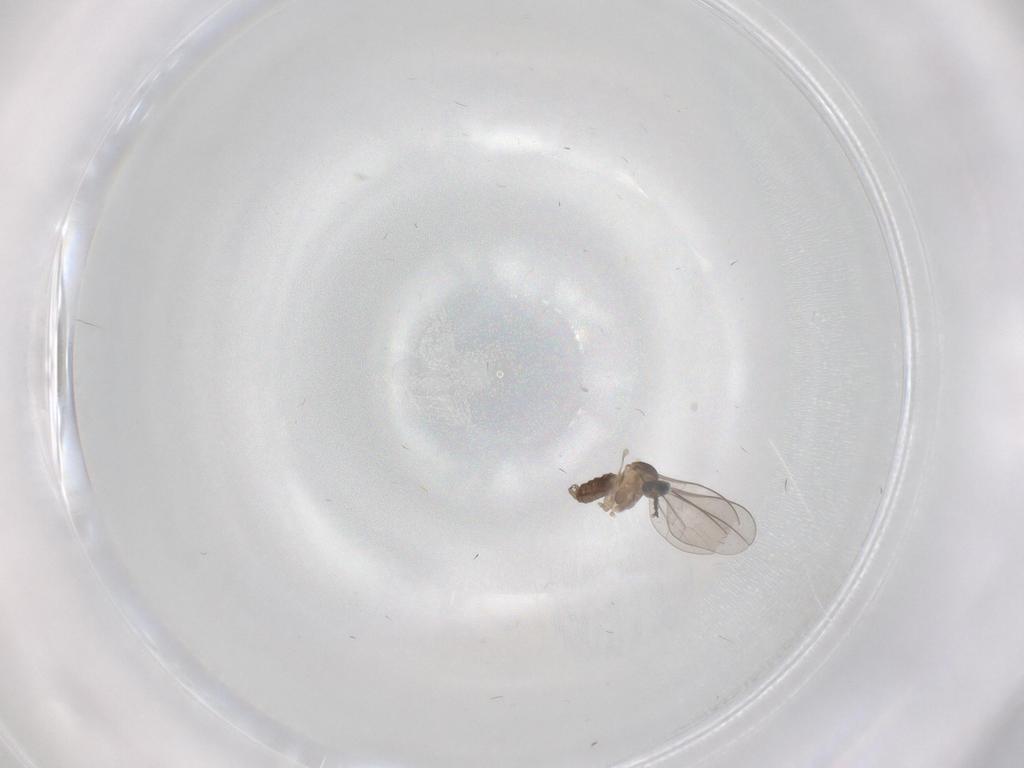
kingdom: Animalia
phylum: Arthropoda
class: Insecta
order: Diptera
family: Cecidomyiidae
